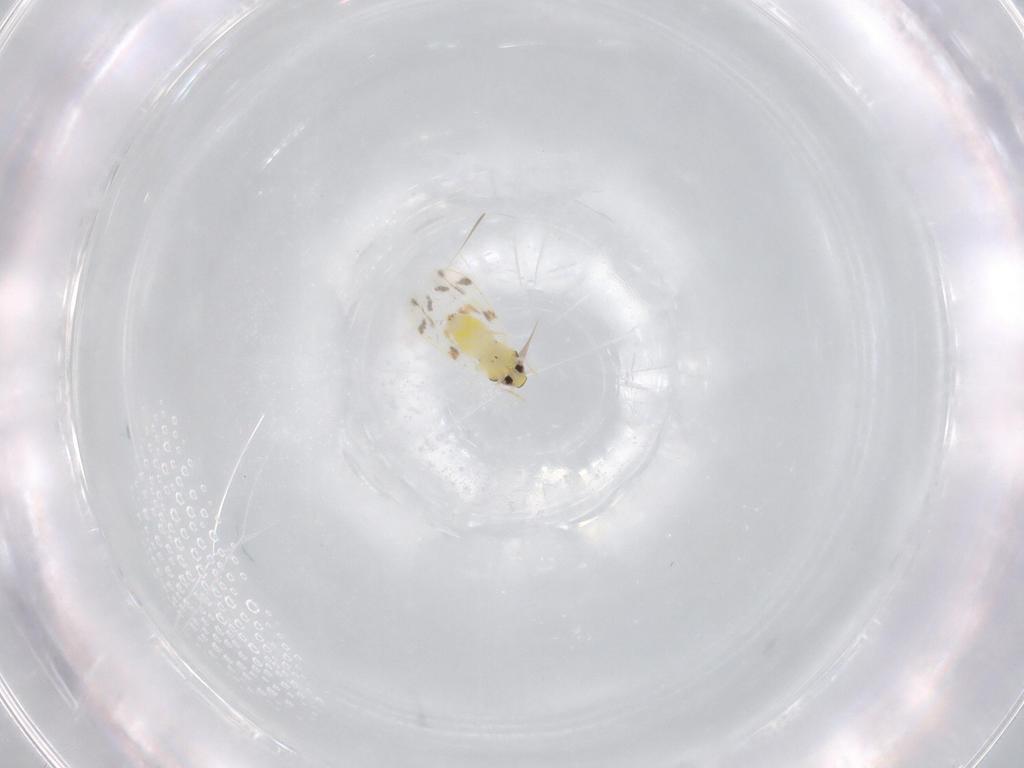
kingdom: Animalia
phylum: Arthropoda
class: Insecta
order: Hemiptera
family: Aleyrodidae
